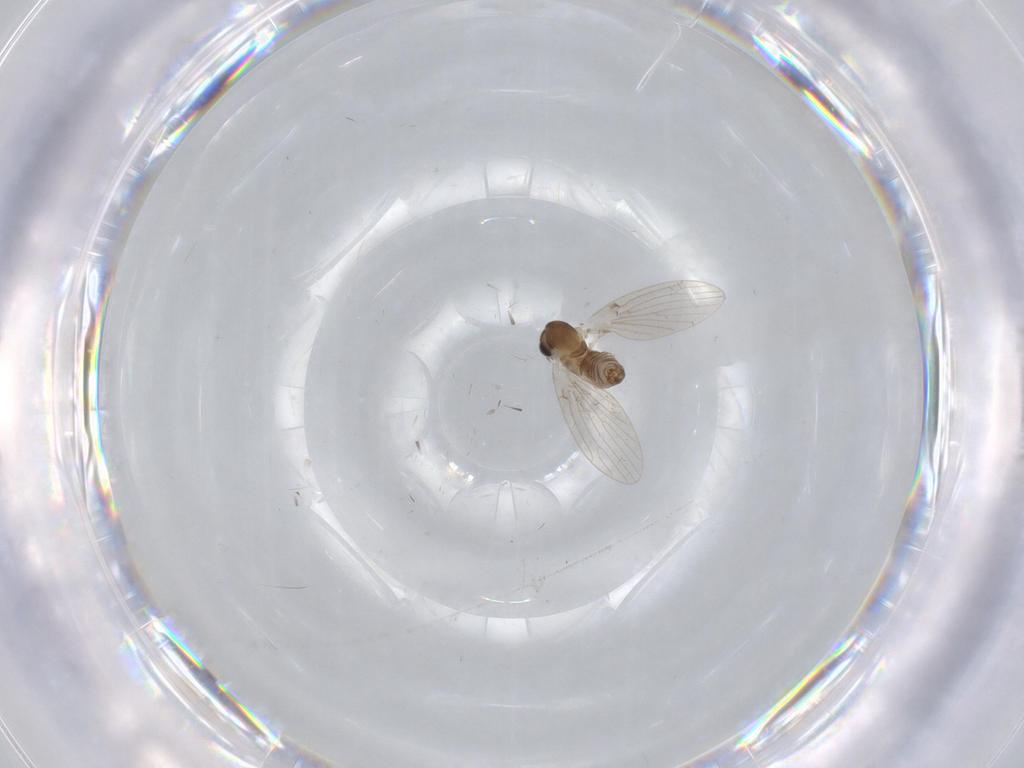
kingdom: Animalia
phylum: Arthropoda
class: Insecta
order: Diptera
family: Psychodidae
